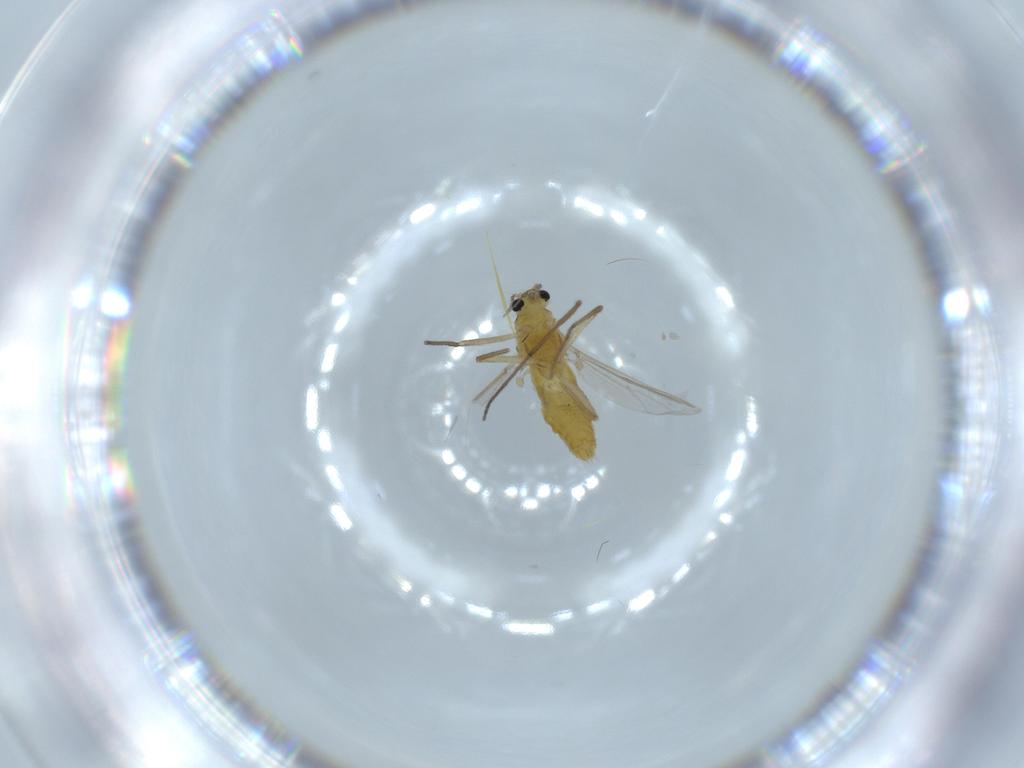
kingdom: Animalia
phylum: Arthropoda
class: Insecta
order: Diptera
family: Chironomidae
